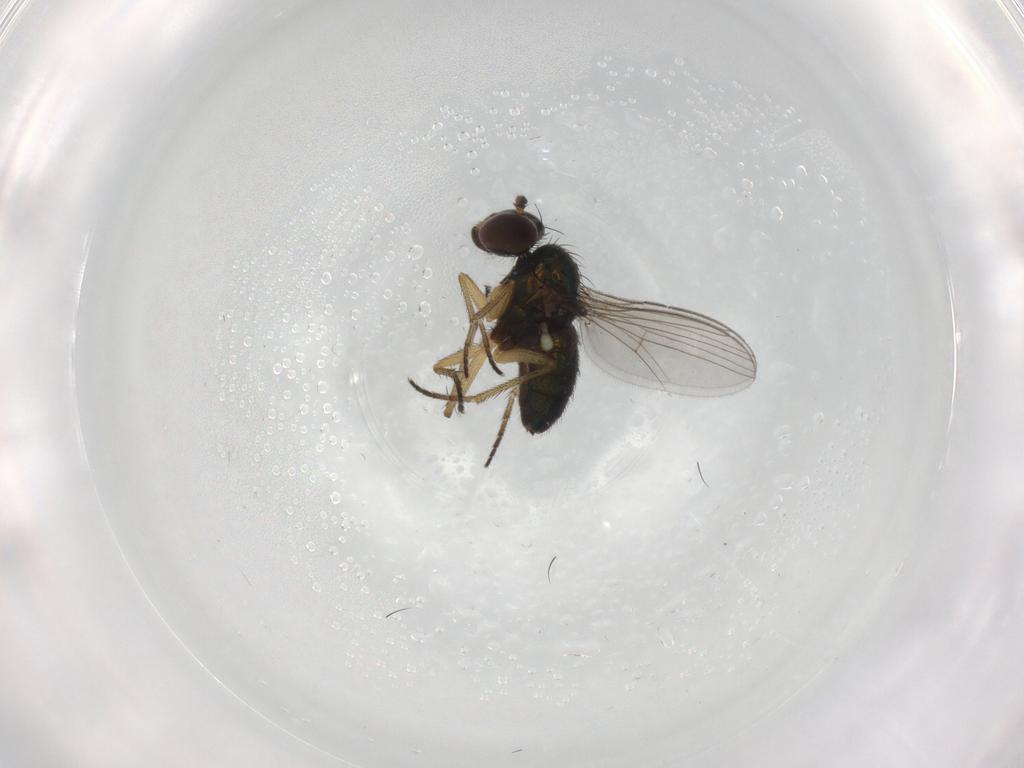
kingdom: Animalia
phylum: Arthropoda
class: Insecta
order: Diptera
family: Dolichopodidae
